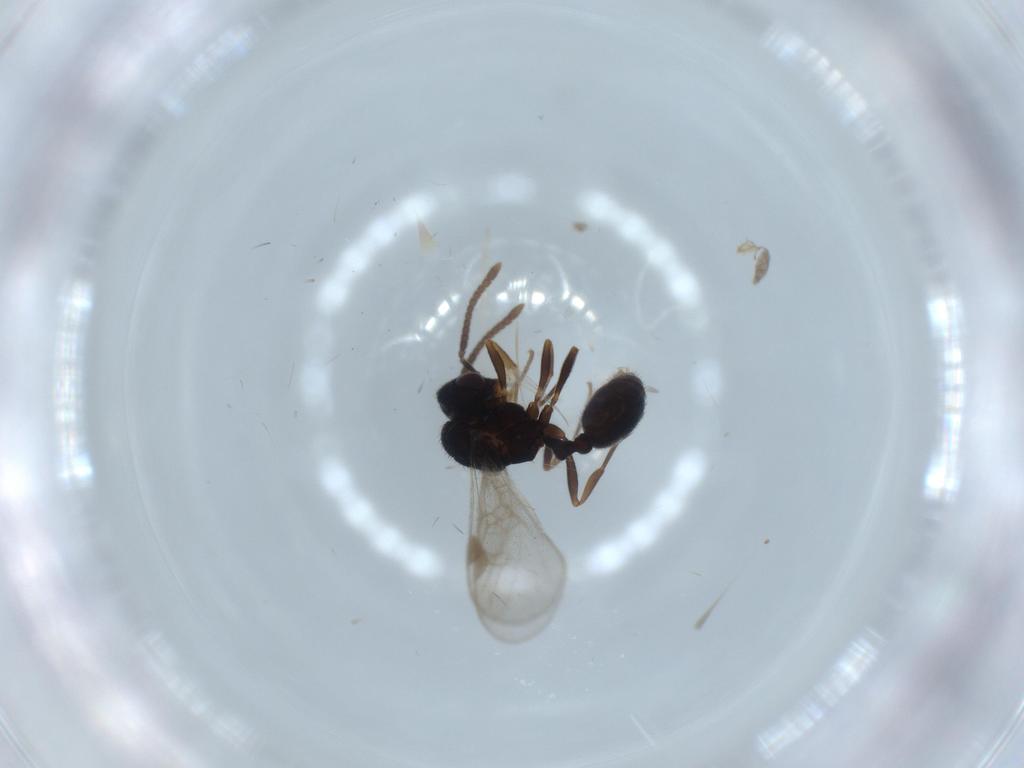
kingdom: Animalia
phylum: Arthropoda
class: Insecta
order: Hymenoptera
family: Formicidae
